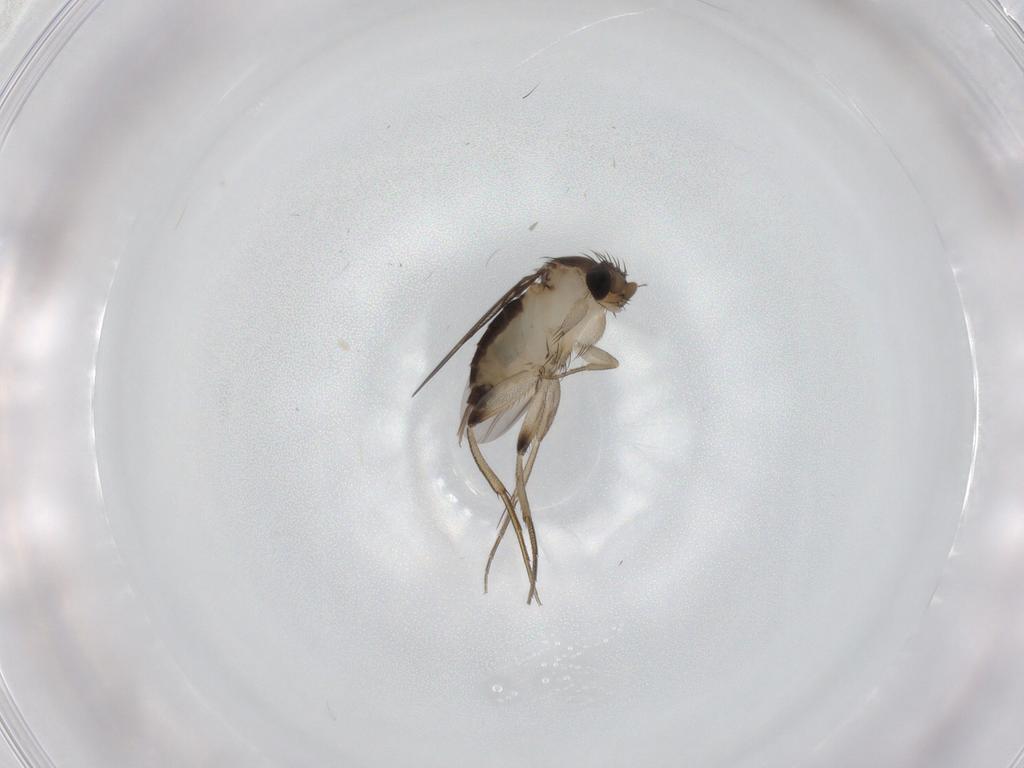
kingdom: Animalia
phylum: Arthropoda
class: Insecta
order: Diptera
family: Phoridae
